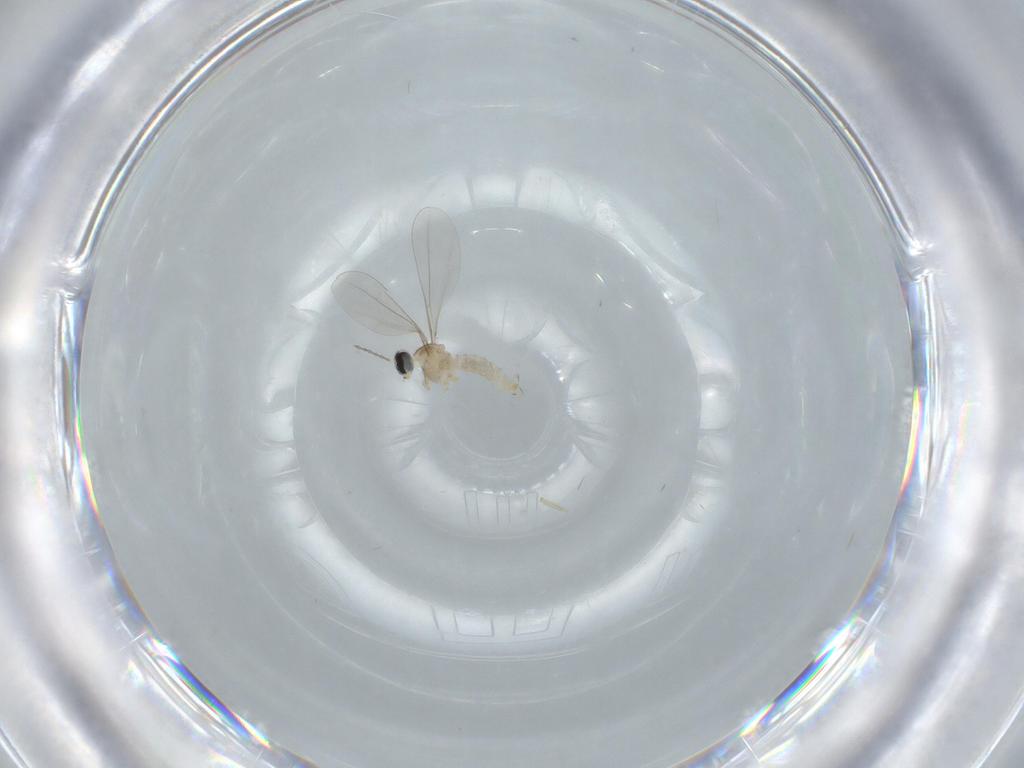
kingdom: Animalia
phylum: Arthropoda
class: Insecta
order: Diptera
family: Cecidomyiidae
